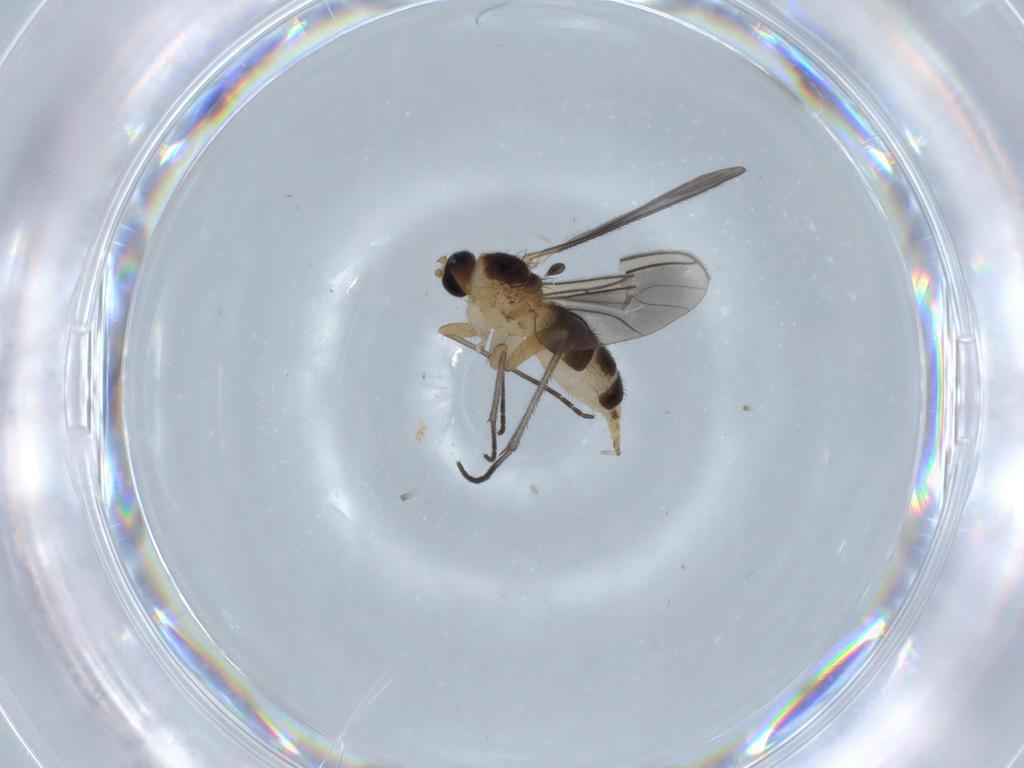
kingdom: Animalia
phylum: Arthropoda
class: Insecta
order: Diptera
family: Sciaridae
